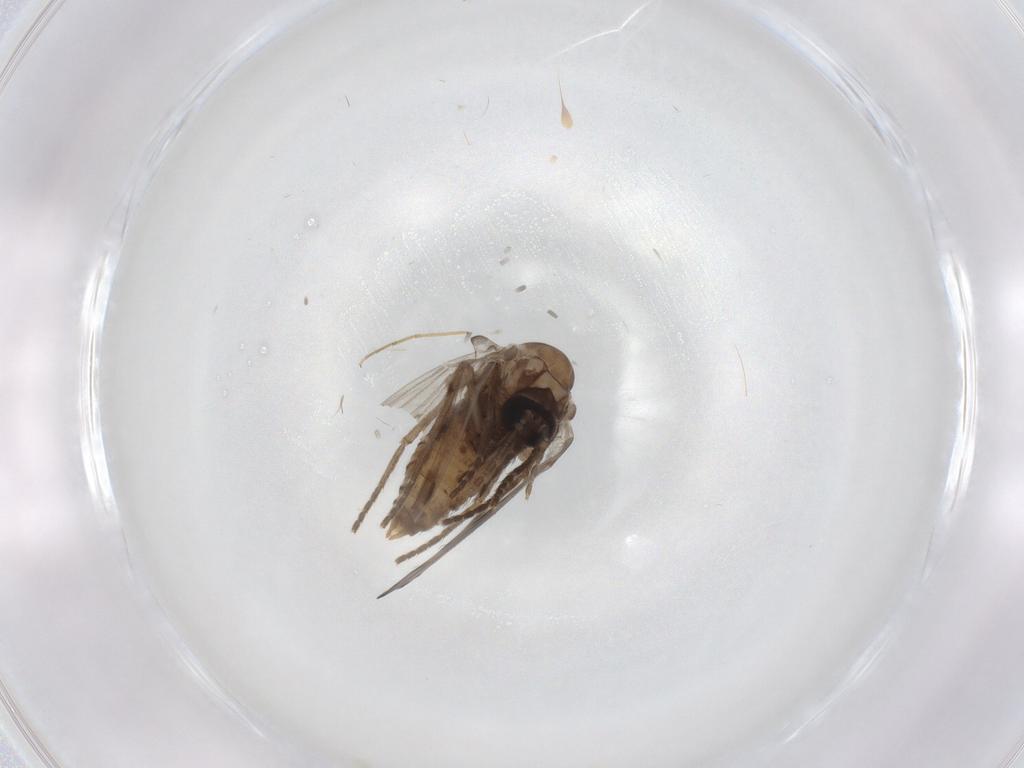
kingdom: Animalia
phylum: Arthropoda
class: Insecta
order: Diptera
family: Psychodidae
